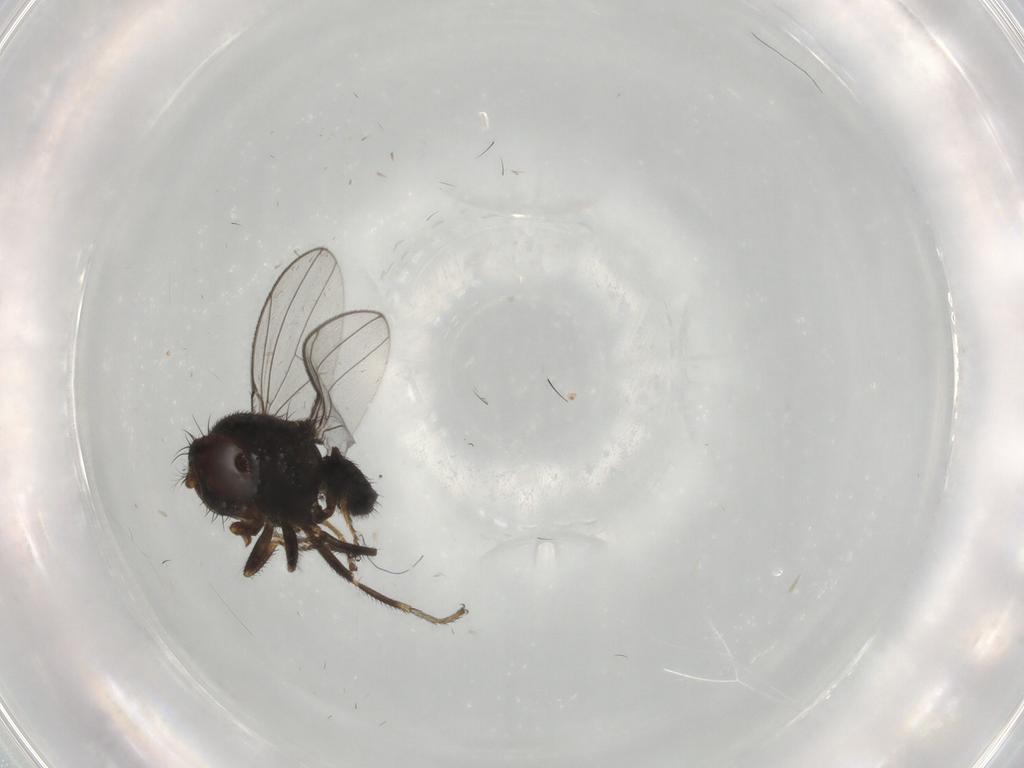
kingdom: Animalia
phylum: Arthropoda
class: Insecta
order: Diptera
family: Ephydridae
